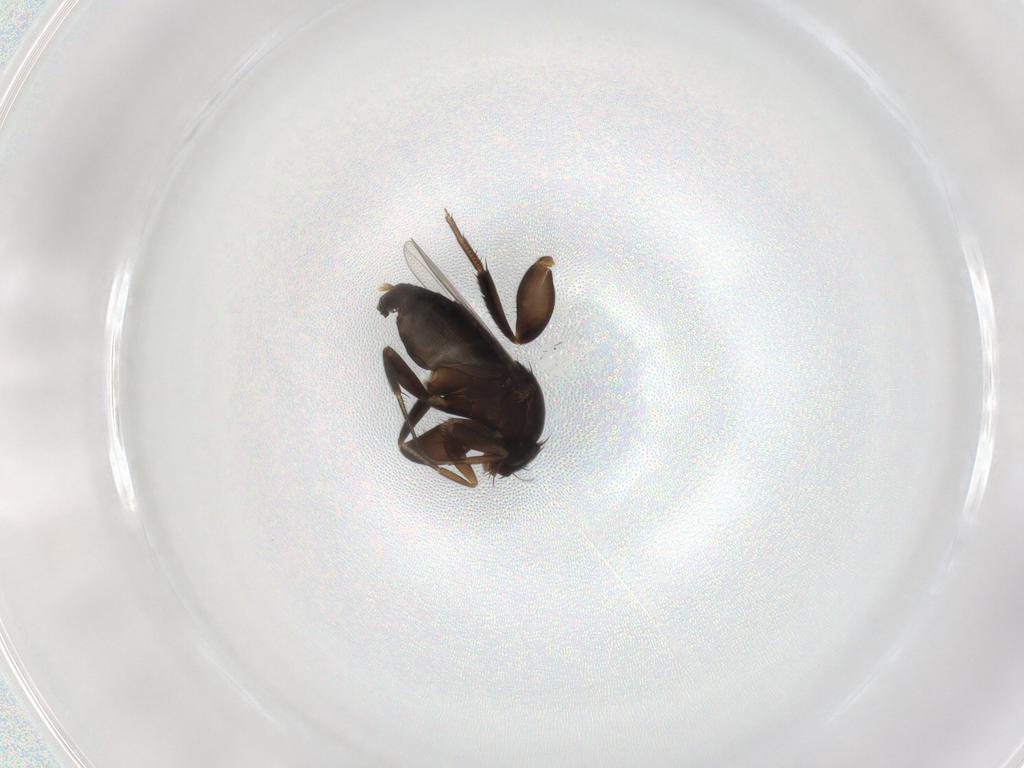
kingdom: Animalia
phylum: Arthropoda
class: Insecta
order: Diptera
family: Phoridae
